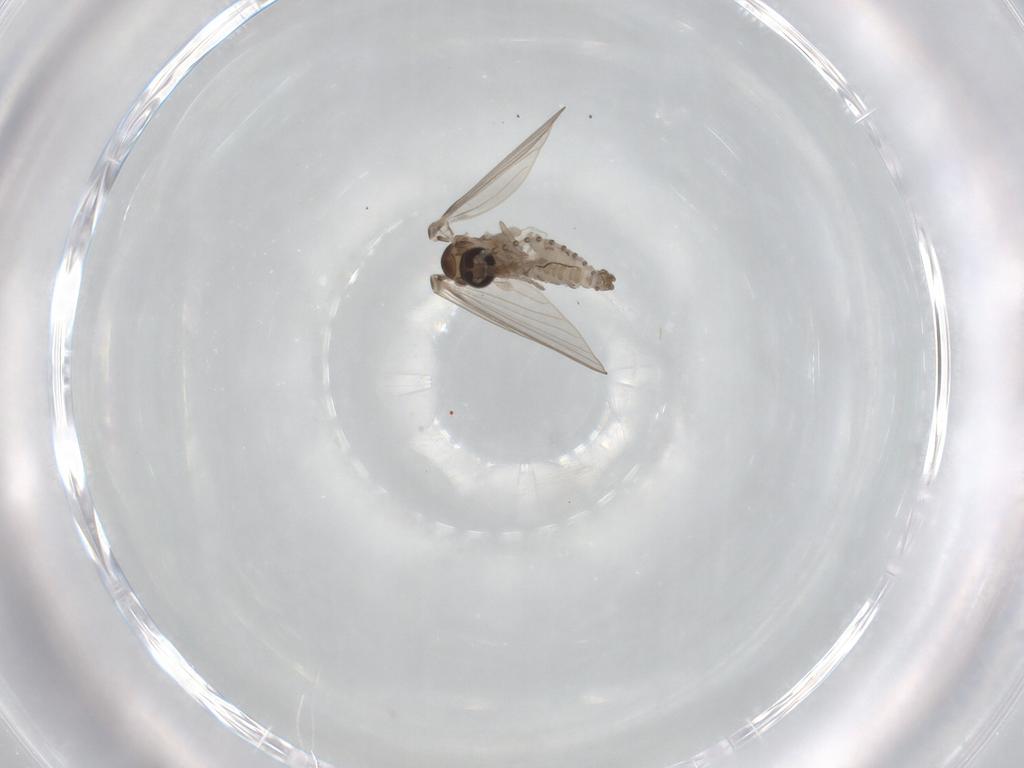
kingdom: Animalia
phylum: Arthropoda
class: Insecta
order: Diptera
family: Psychodidae
